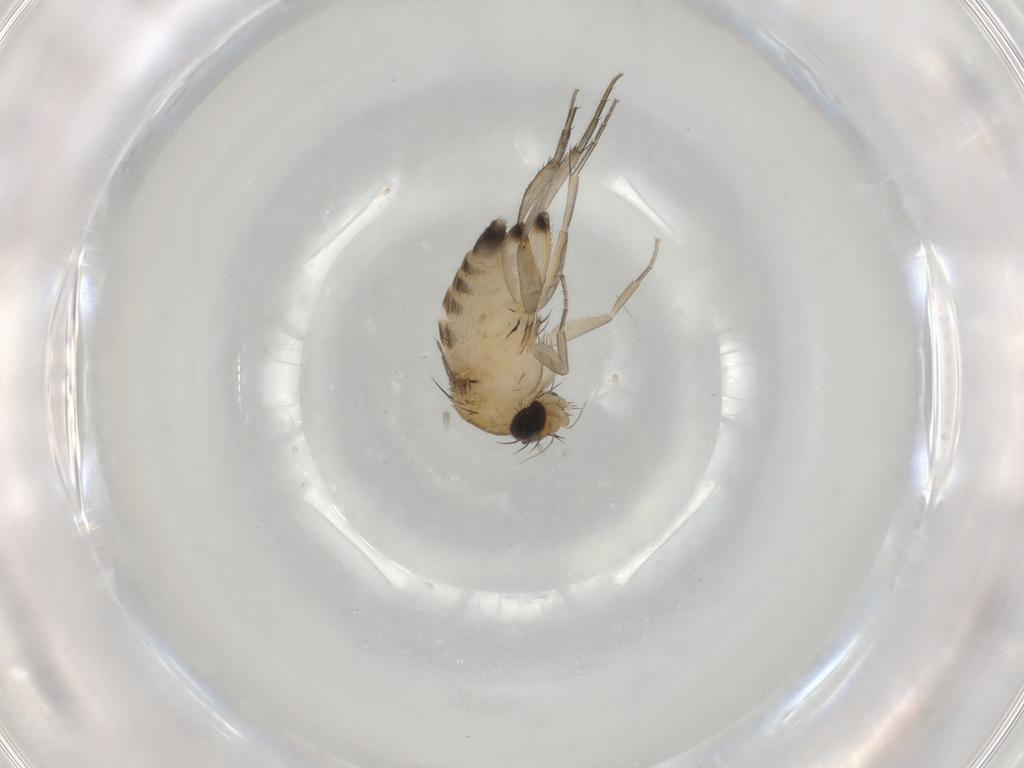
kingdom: Animalia
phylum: Arthropoda
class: Insecta
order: Diptera
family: Phoridae
